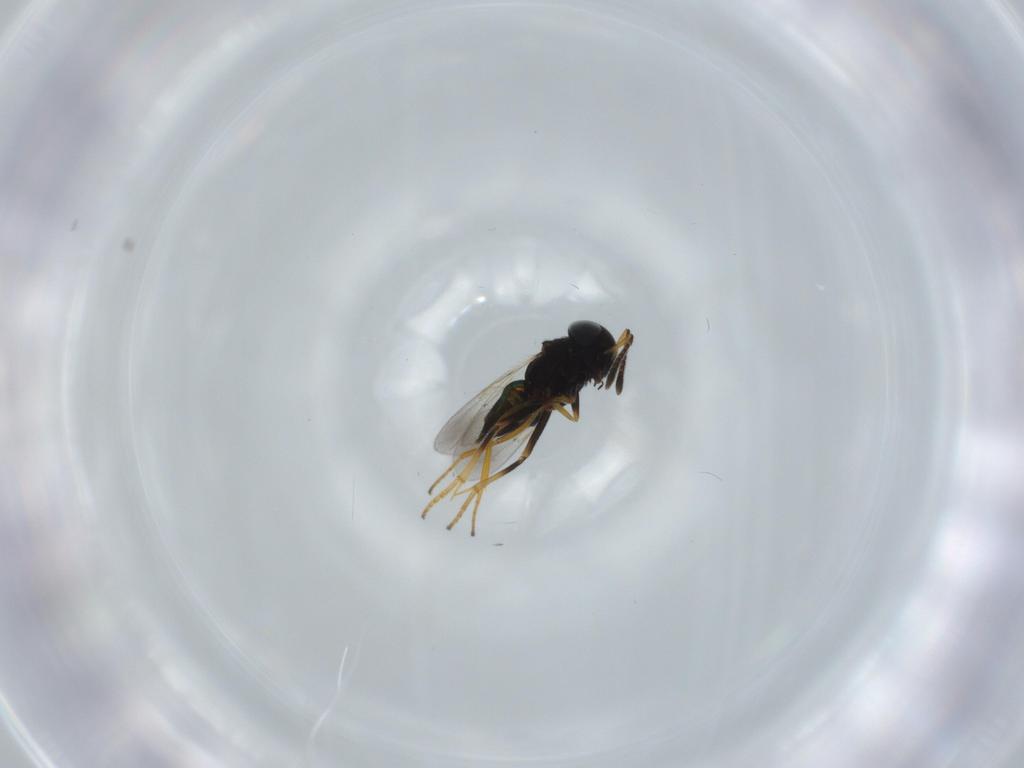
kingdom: Animalia
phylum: Arthropoda
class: Insecta
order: Hymenoptera
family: Encyrtidae
